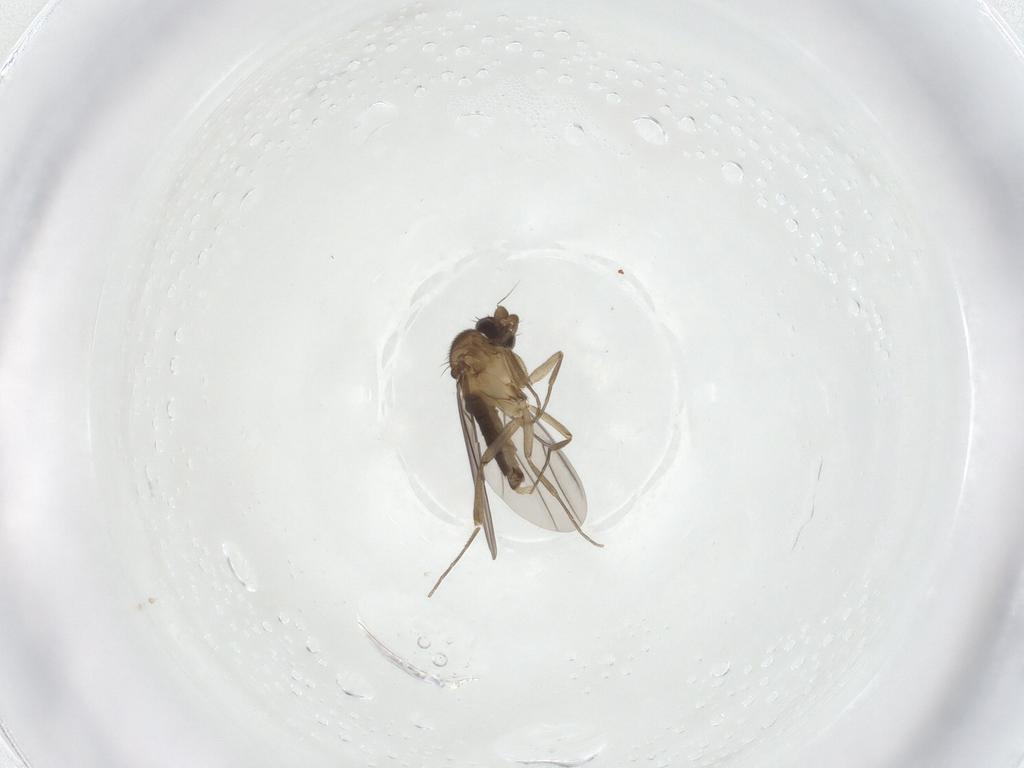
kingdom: Animalia
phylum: Arthropoda
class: Insecta
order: Diptera
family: Phoridae
